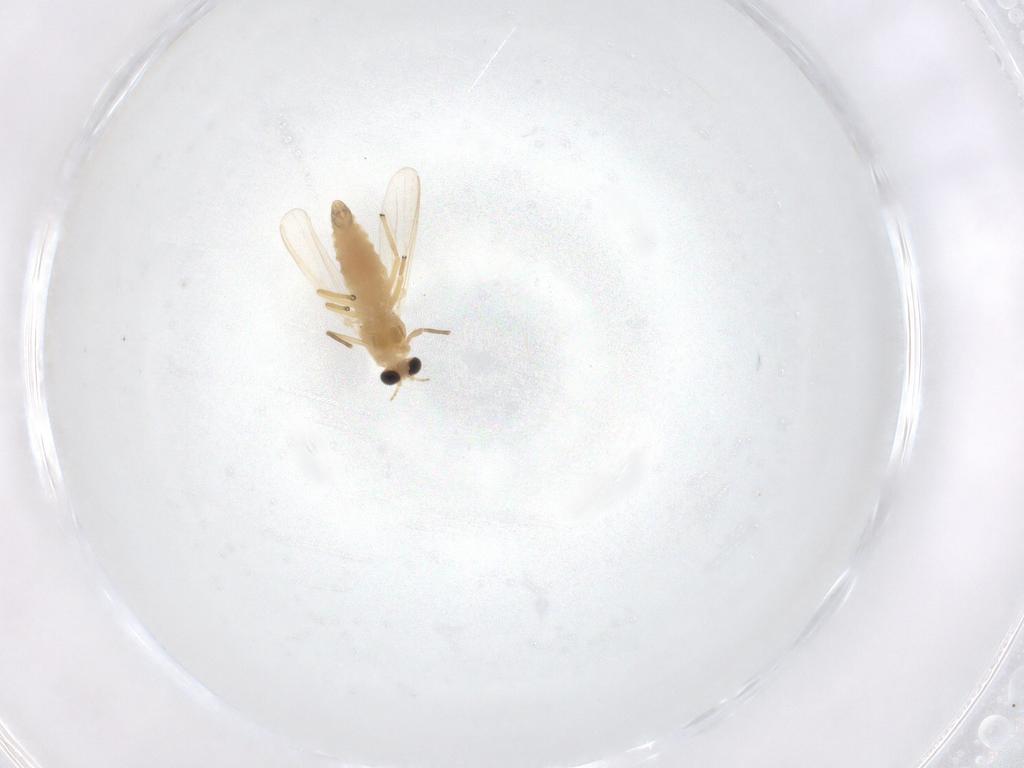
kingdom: Animalia
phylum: Arthropoda
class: Insecta
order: Diptera
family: Chironomidae
